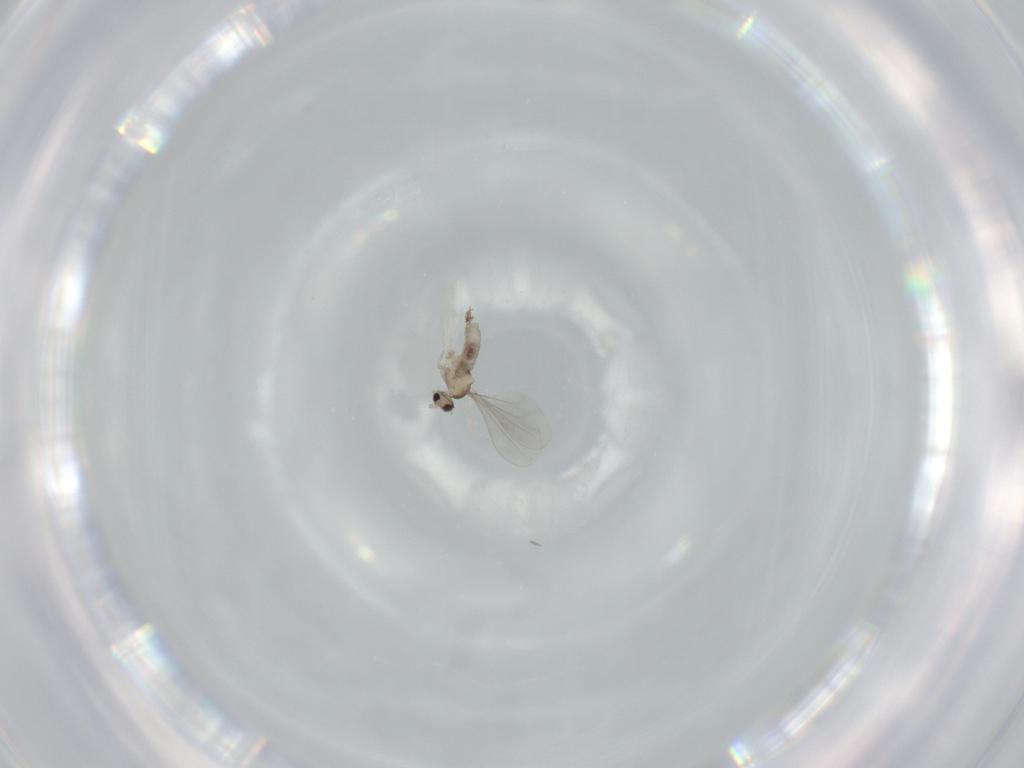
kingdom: Animalia
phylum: Arthropoda
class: Insecta
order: Diptera
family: Cecidomyiidae
